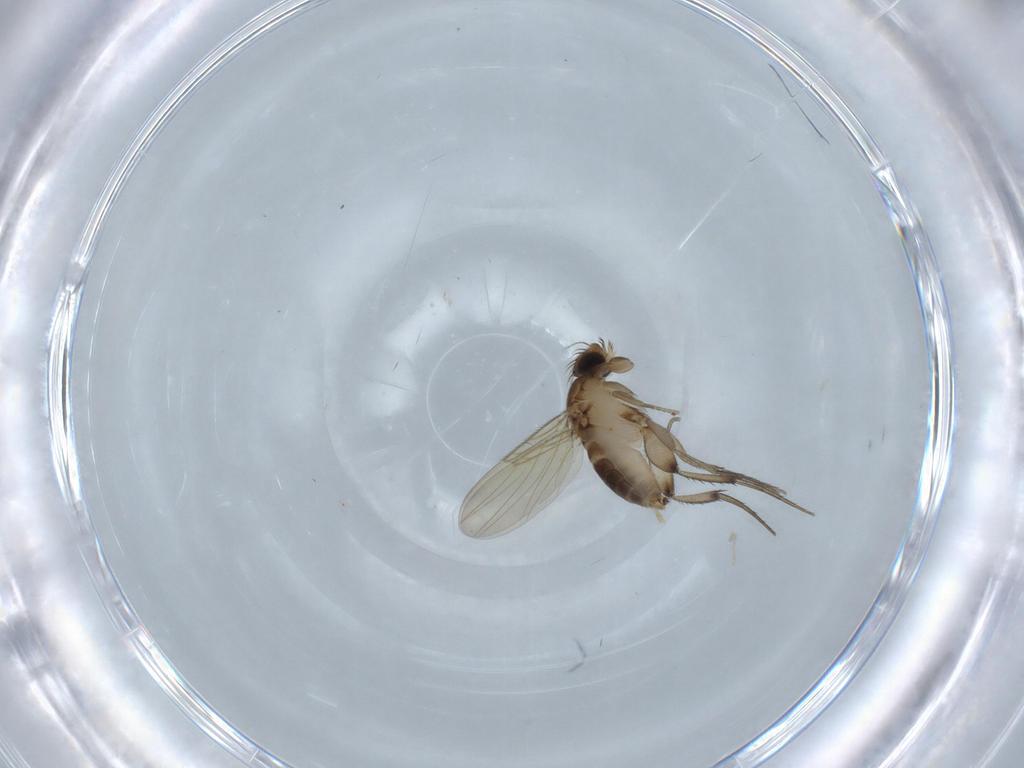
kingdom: Animalia
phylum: Arthropoda
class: Insecta
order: Diptera
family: Phoridae
